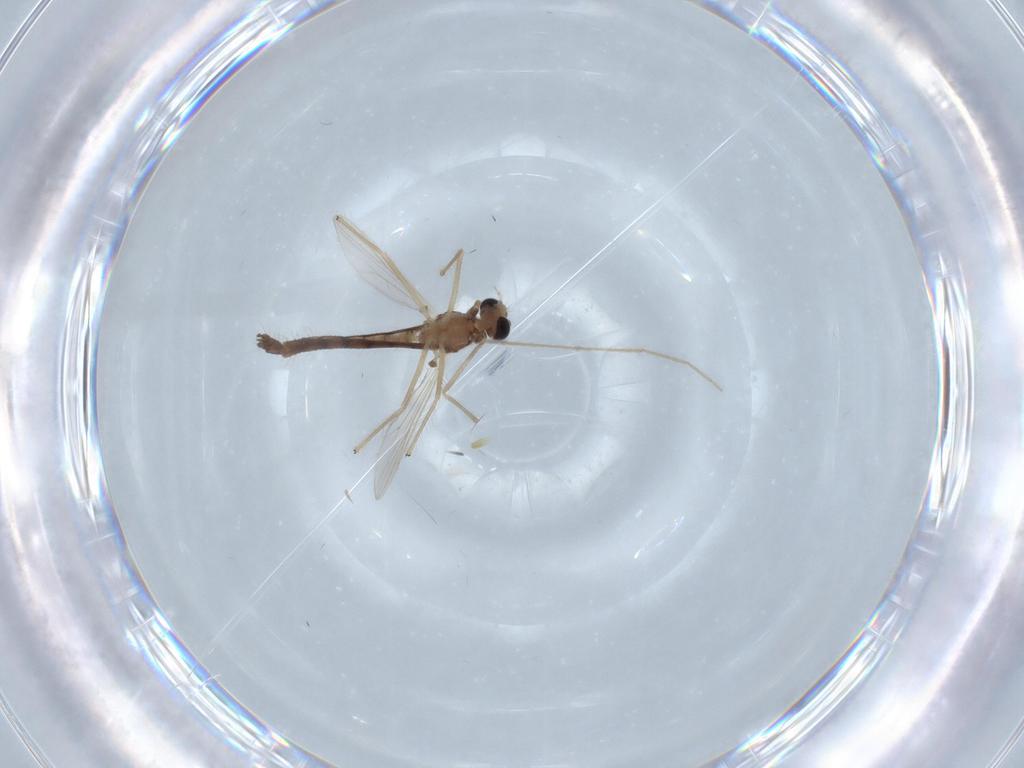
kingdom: Animalia
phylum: Arthropoda
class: Insecta
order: Diptera
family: Chironomidae
